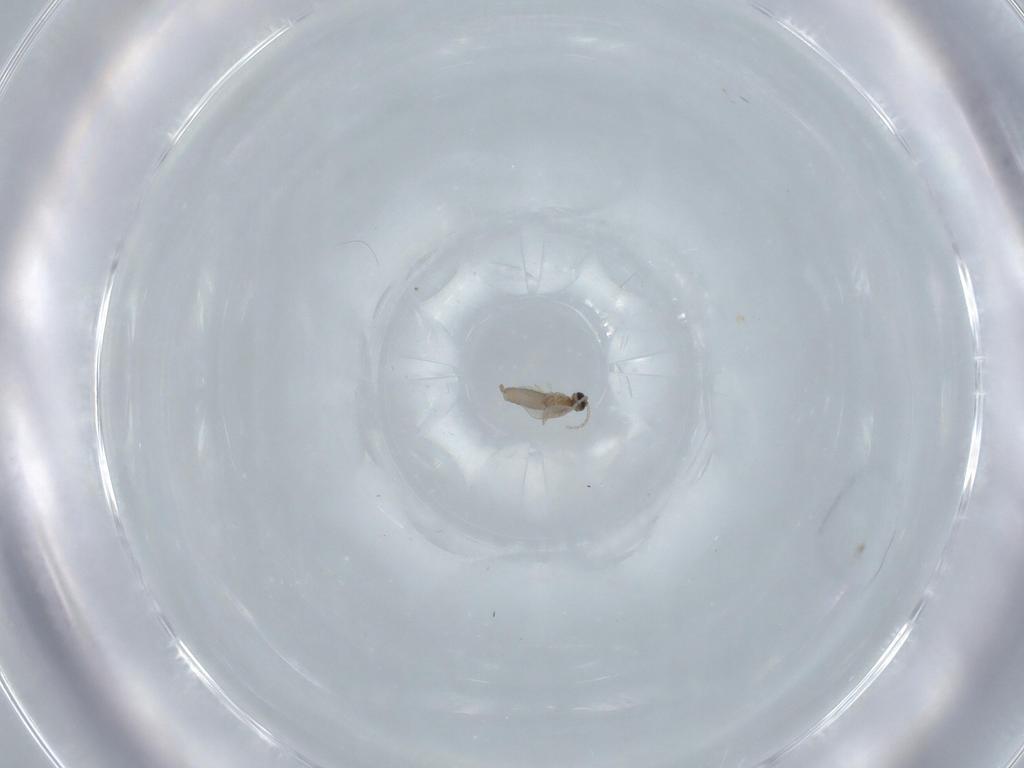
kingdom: Animalia
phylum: Arthropoda
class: Insecta
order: Diptera
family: Cecidomyiidae
